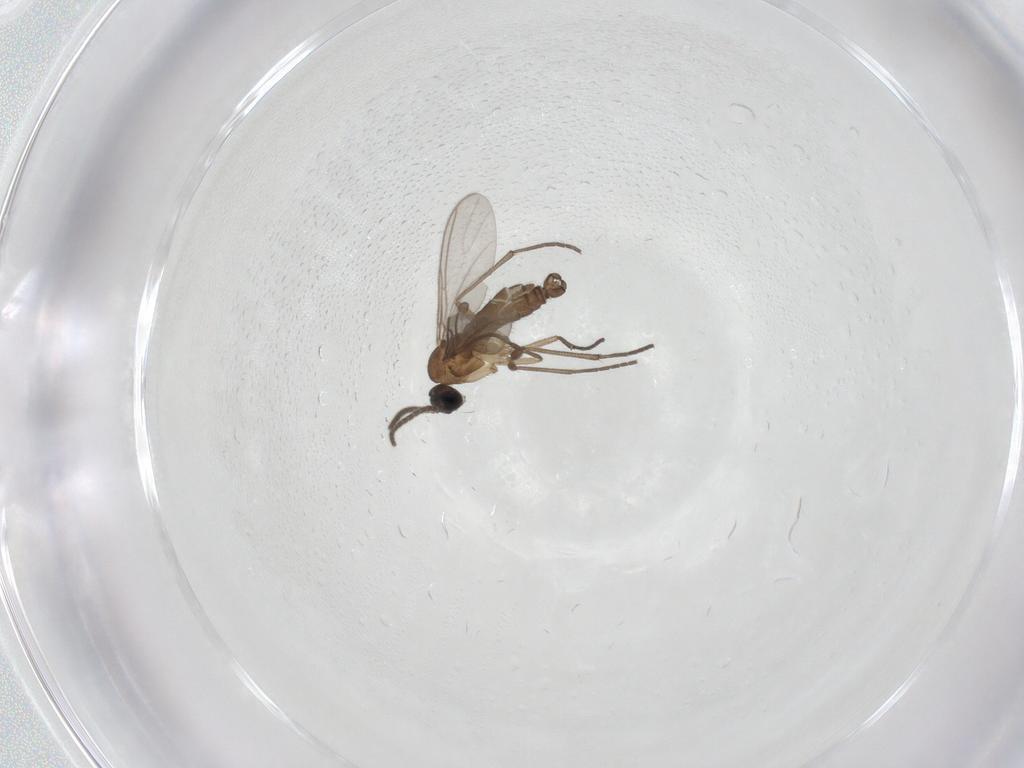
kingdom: Animalia
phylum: Arthropoda
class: Insecta
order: Diptera
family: Sciaridae
